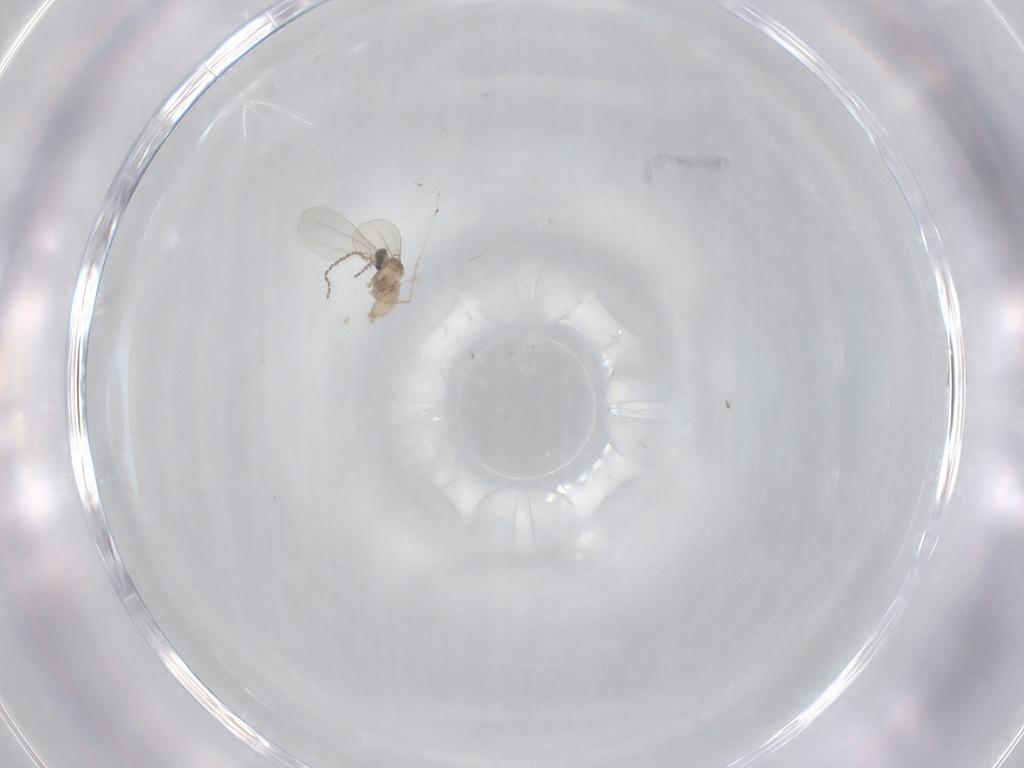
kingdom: Animalia
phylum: Arthropoda
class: Insecta
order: Diptera
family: Cecidomyiidae
